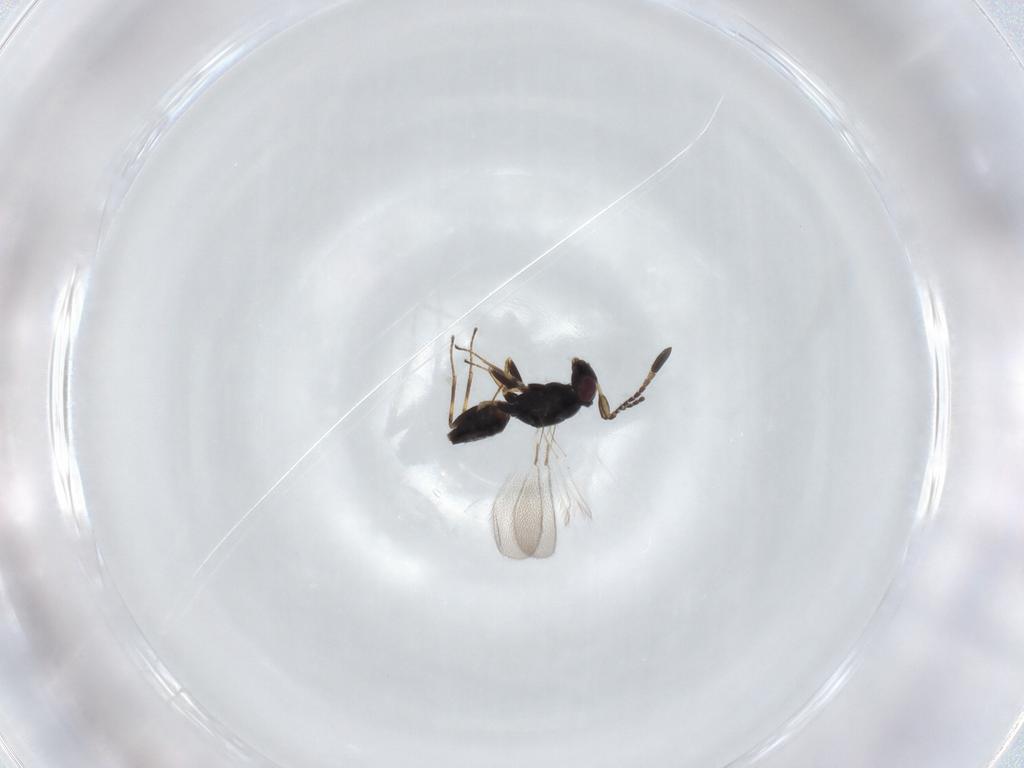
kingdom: Animalia
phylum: Arthropoda
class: Insecta
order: Hymenoptera
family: Mymaridae
